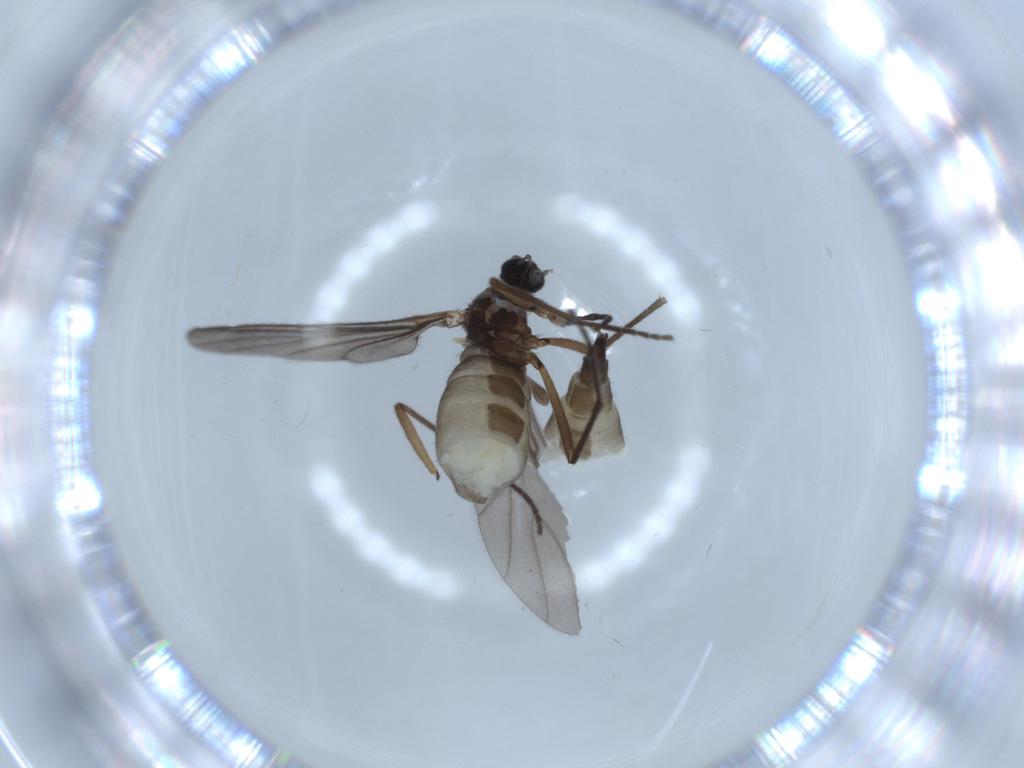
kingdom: Animalia
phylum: Arthropoda
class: Insecta
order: Diptera
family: Sciaridae
